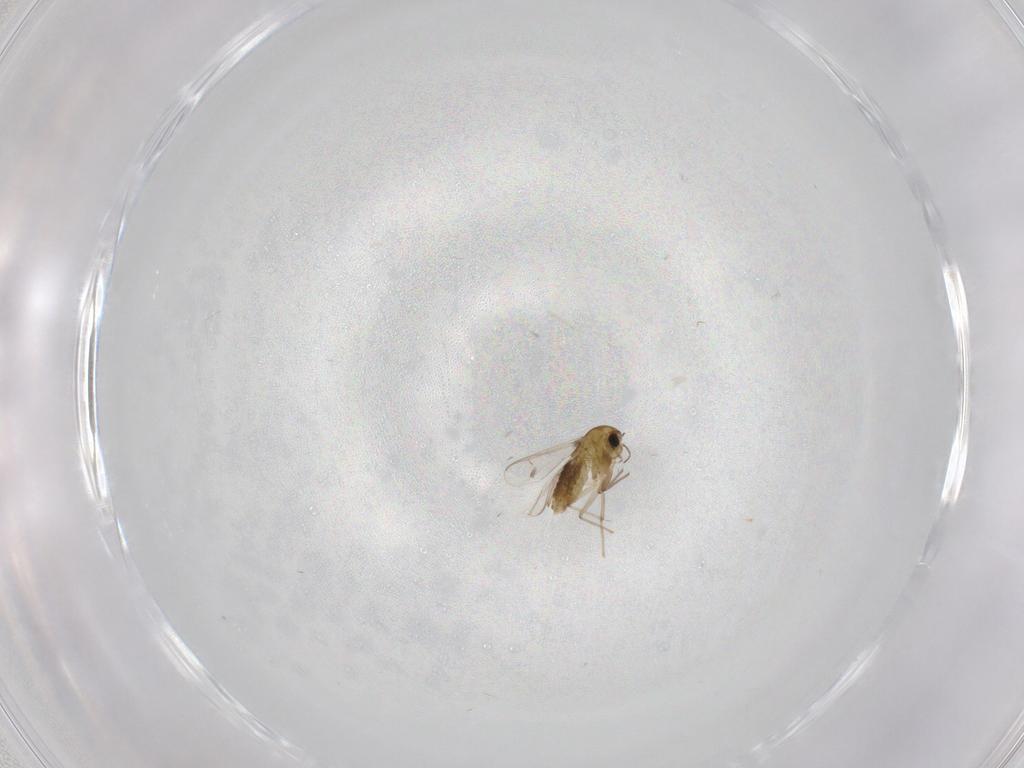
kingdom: Animalia
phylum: Arthropoda
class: Insecta
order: Diptera
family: Chironomidae
